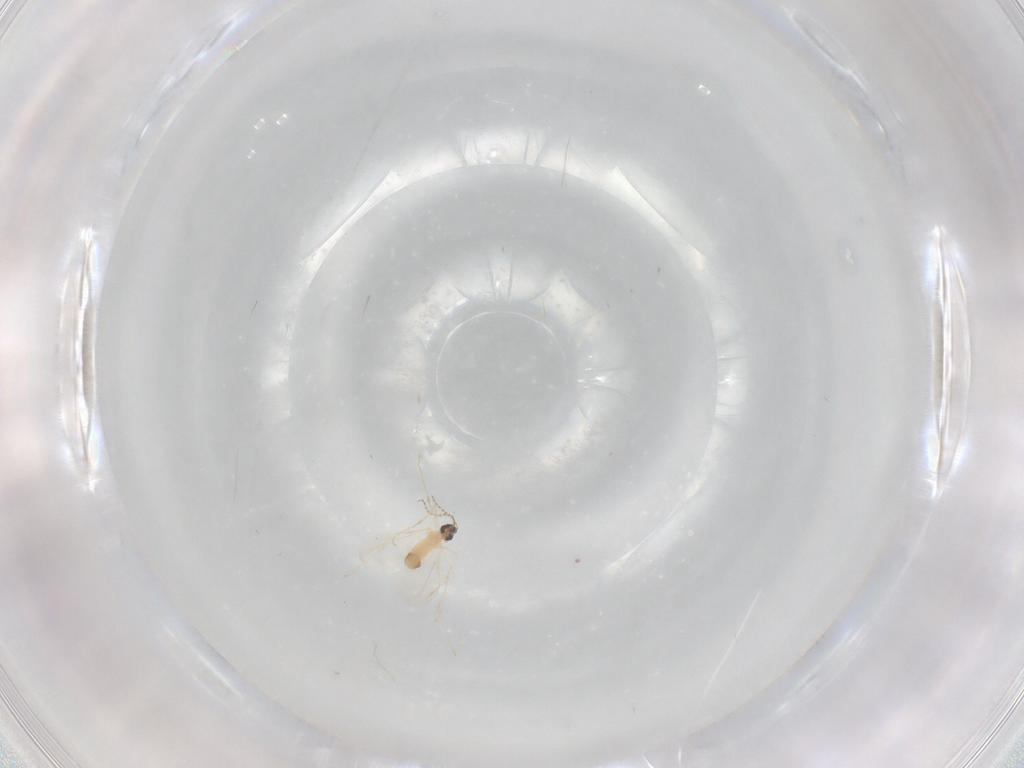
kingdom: Animalia
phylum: Arthropoda
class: Insecta
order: Diptera
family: Cecidomyiidae
